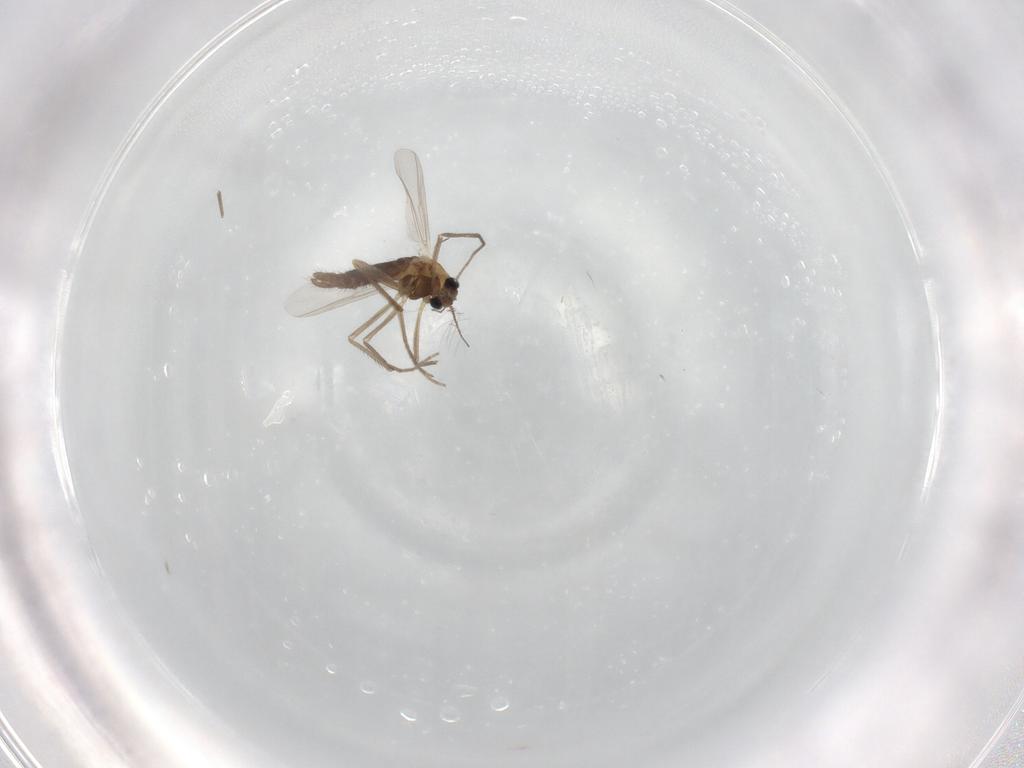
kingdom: Animalia
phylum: Arthropoda
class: Insecta
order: Diptera
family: Chironomidae
